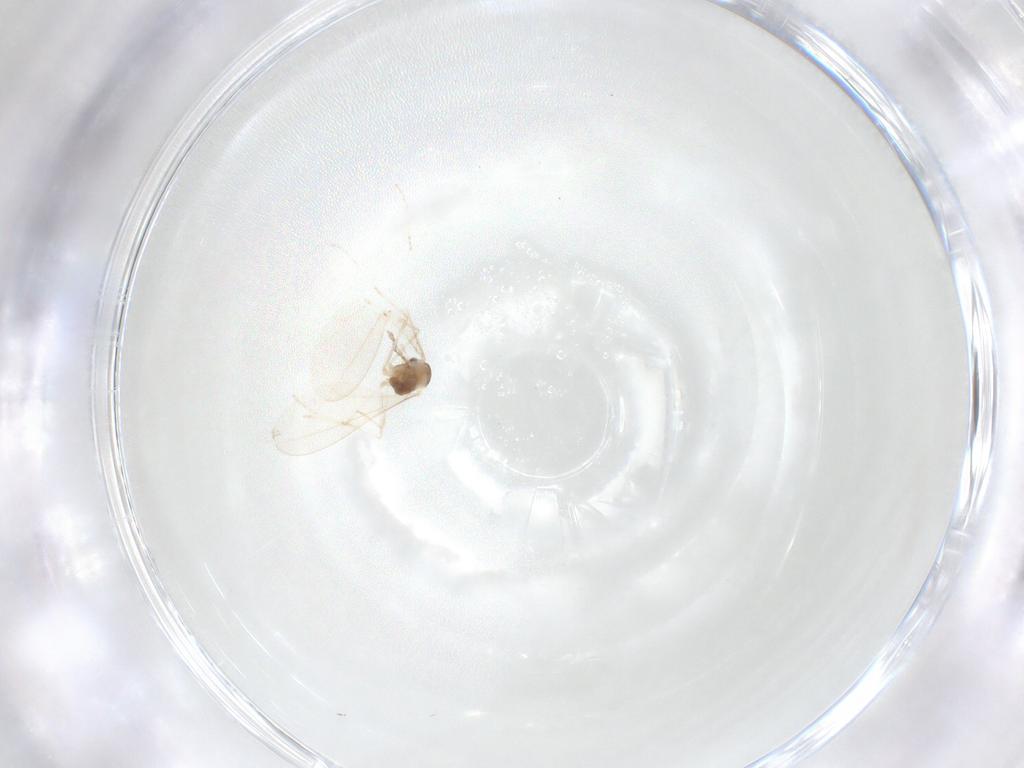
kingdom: Animalia
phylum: Arthropoda
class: Insecta
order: Diptera
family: Cecidomyiidae
